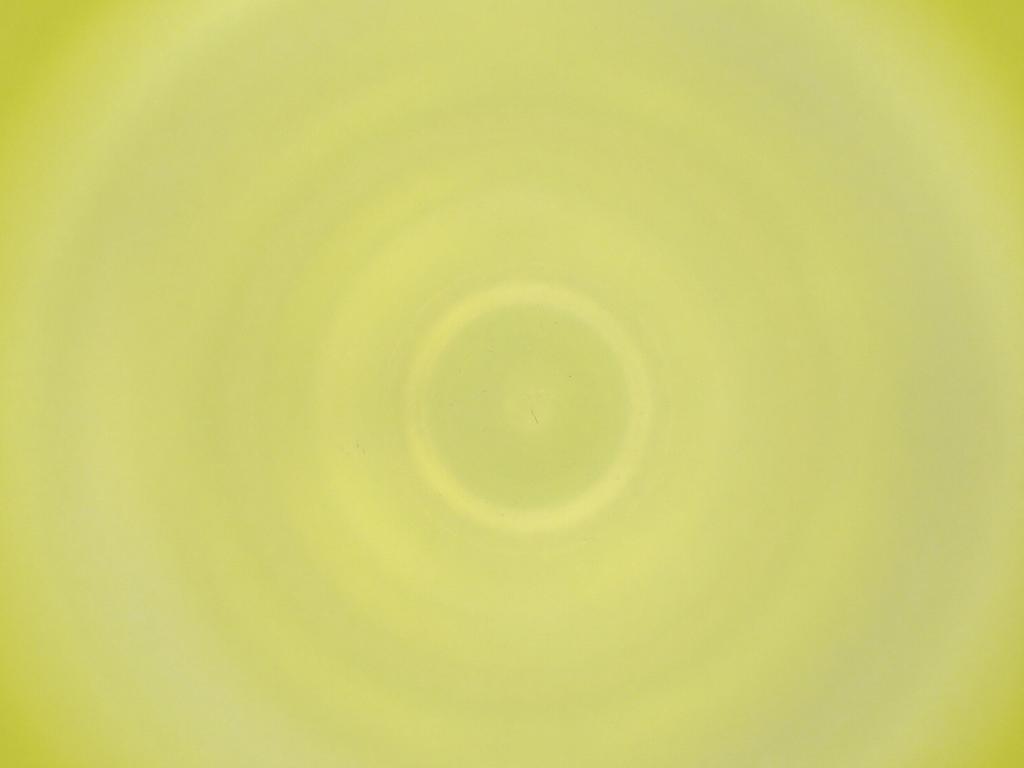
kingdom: Animalia
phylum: Arthropoda
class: Insecta
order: Diptera
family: Cecidomyiidae
